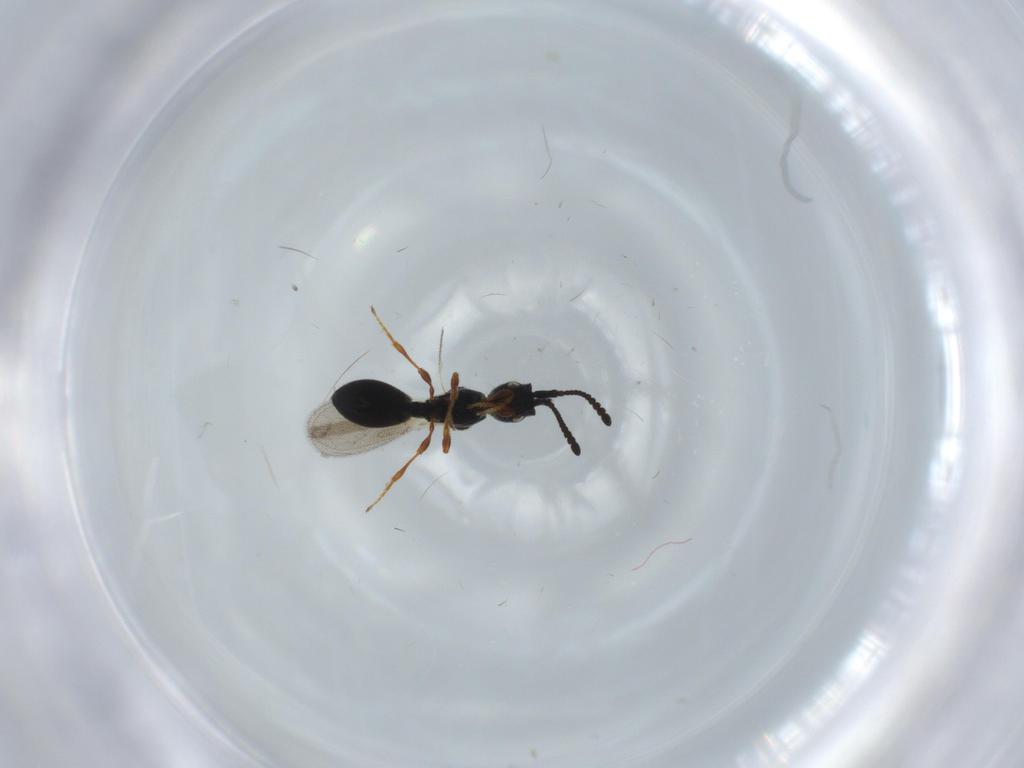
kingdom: Animalia
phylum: Arthropoda
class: Insecta
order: Hymenoptera
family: Diapriidae
